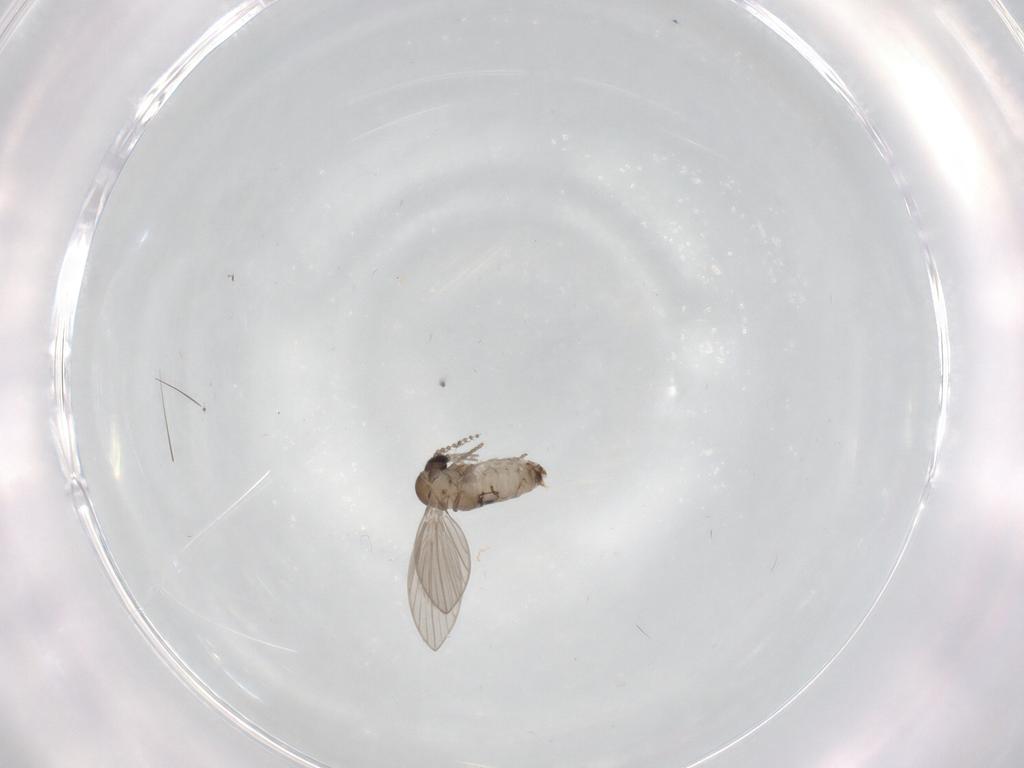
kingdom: Animalia
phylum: Arthropoda
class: Insecta
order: Diptera
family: Psychodidae
